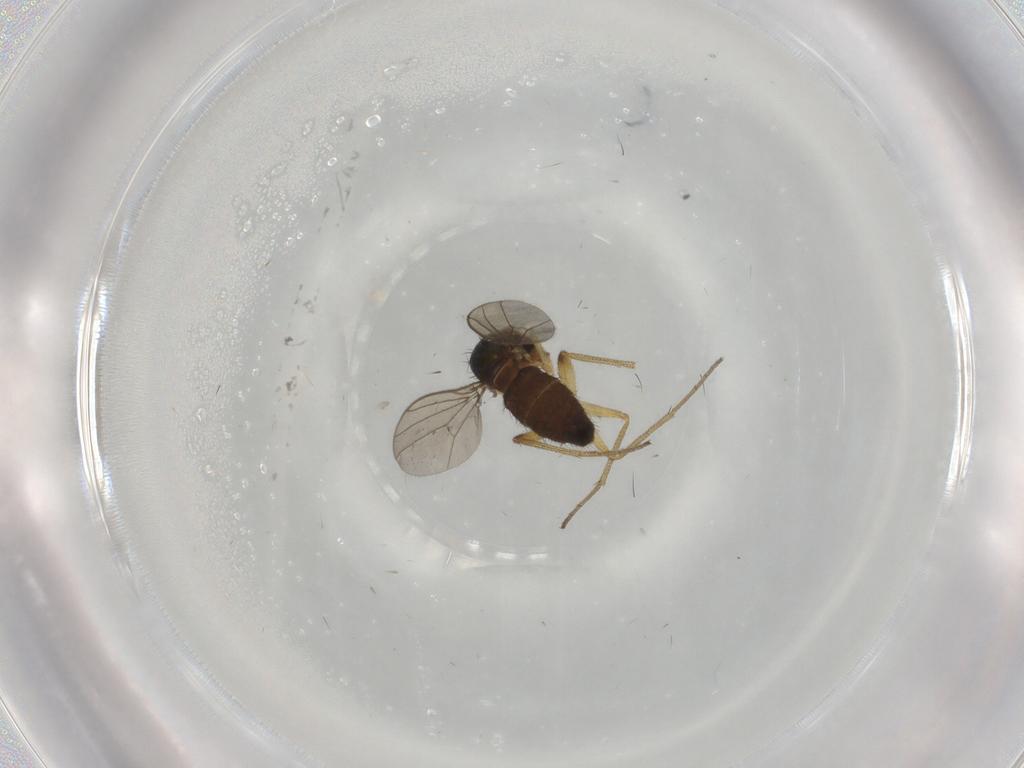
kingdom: Animalia
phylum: Arthropoda
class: Insecta
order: Diptera
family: Dolichopodidae
